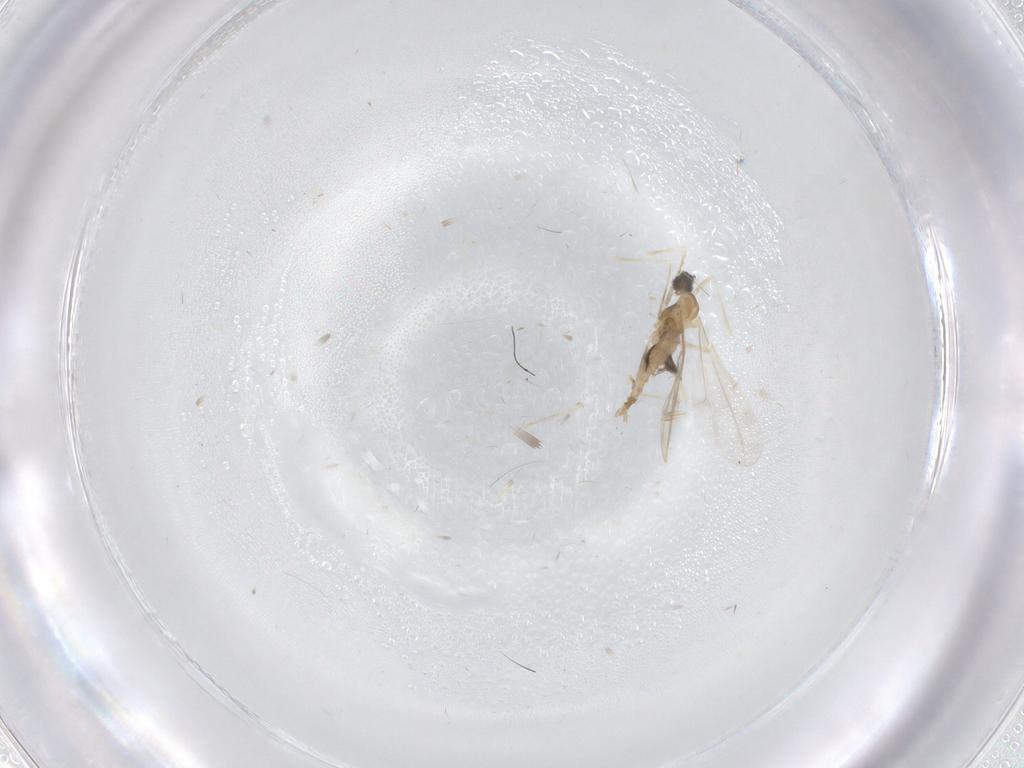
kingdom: Animalia
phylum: Arthropoda
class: Insecta
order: Diptera
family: Cecidomyiidae
